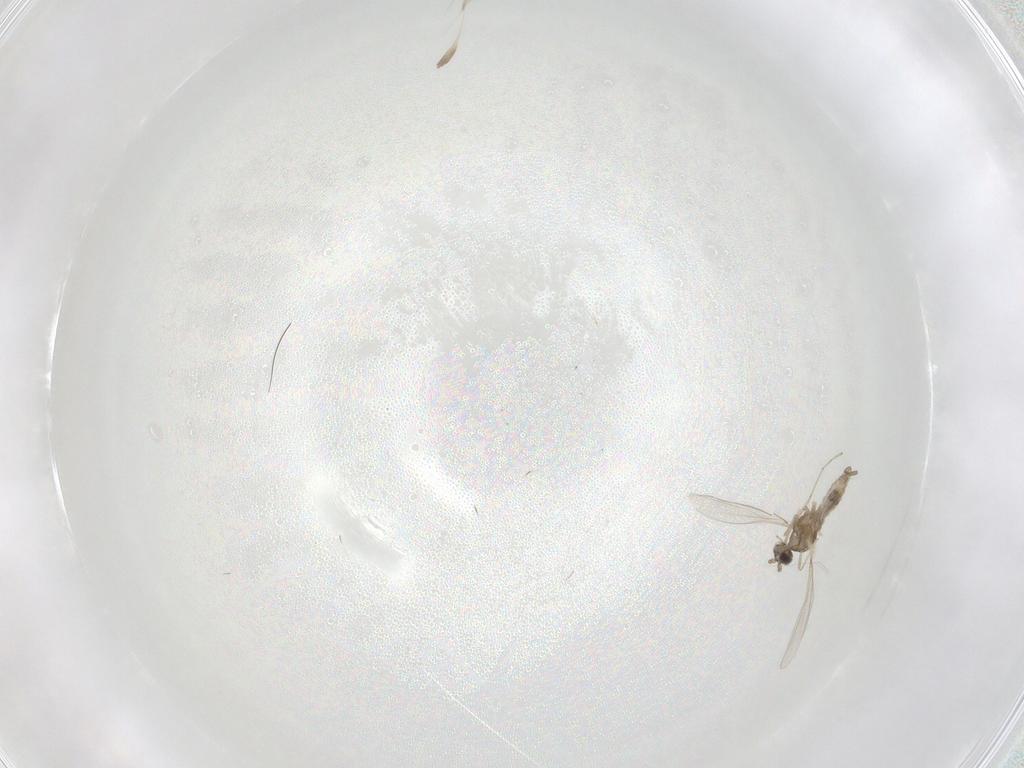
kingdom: Animalia
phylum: Arthropoda
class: Insecta
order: Diptera
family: Cecidomyiidae
